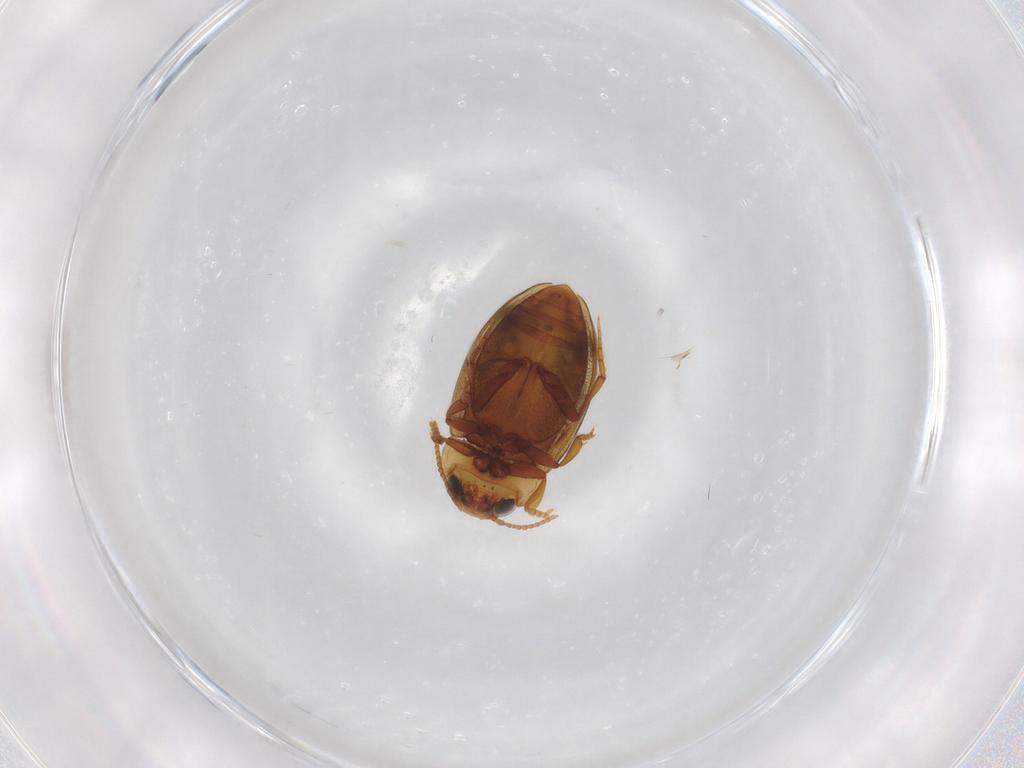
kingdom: Animalia
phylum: Arthropoda
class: Insecta
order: Coleoptera
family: Dytiscidae
